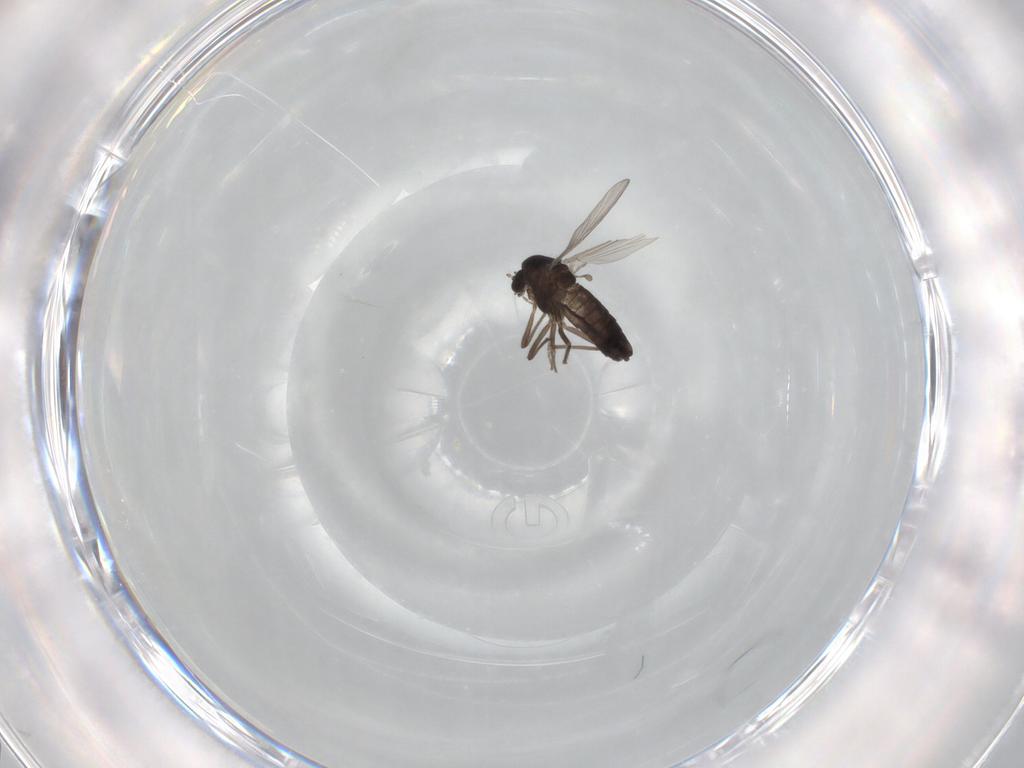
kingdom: Animalia
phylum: Arthropoda
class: Insecta
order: Diptera
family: Chironomidae
